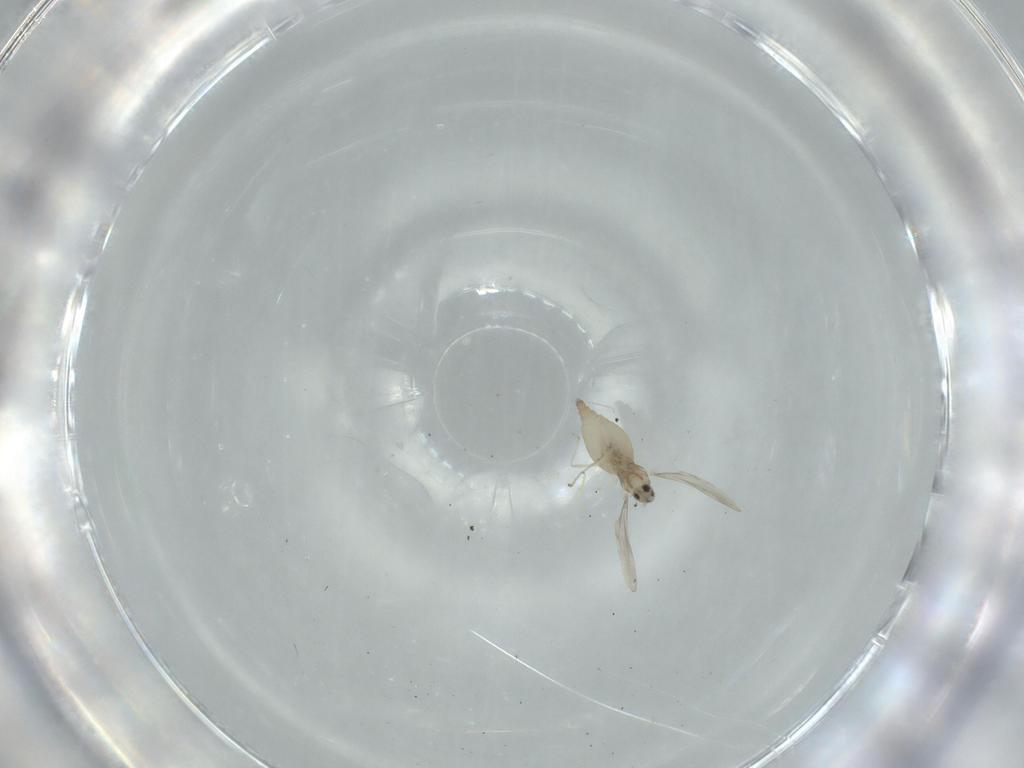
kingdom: Animalia
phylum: Arthropoda
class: Insecta
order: Diptera
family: Cecidomyiidae
